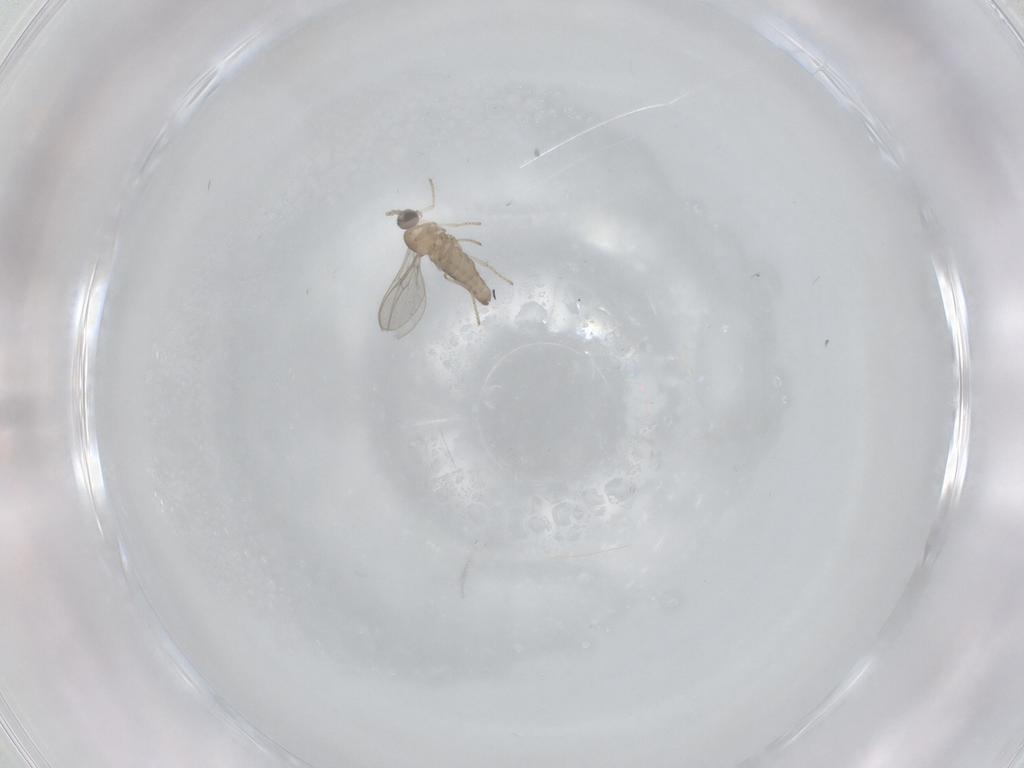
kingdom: Animalia
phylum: Arthropoda
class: Insecta
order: Diptera
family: Cecidomyiidae
